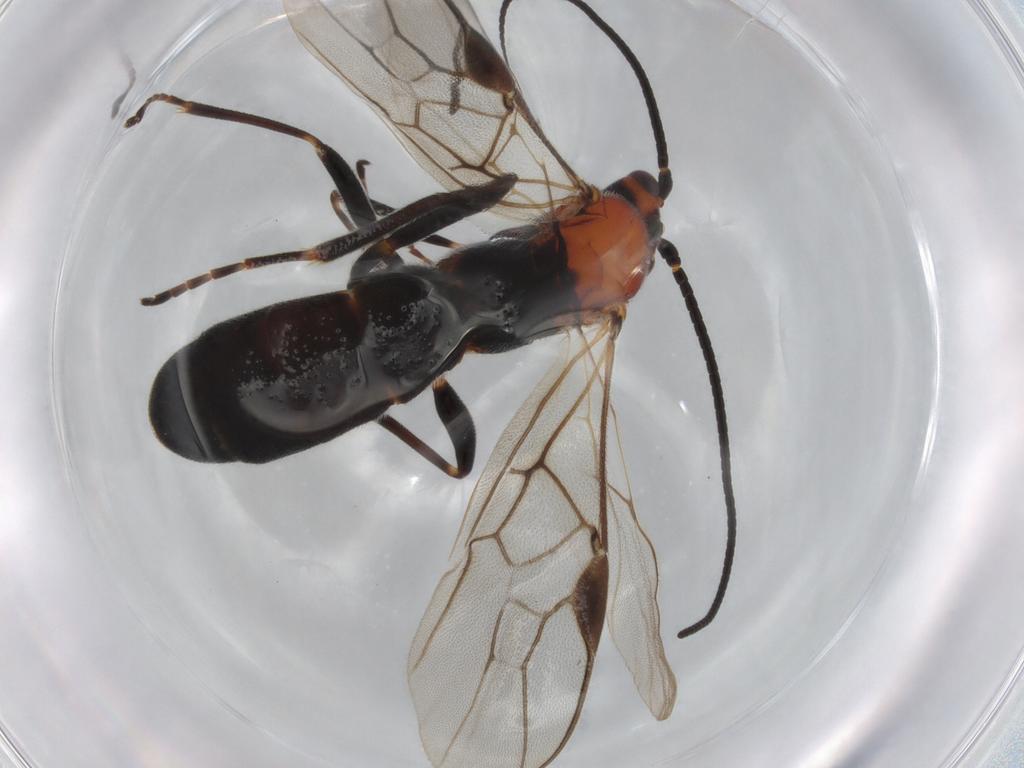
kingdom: Animalia
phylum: Arthropoda
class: Insecta
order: Hymenoptera
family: Braconidae
